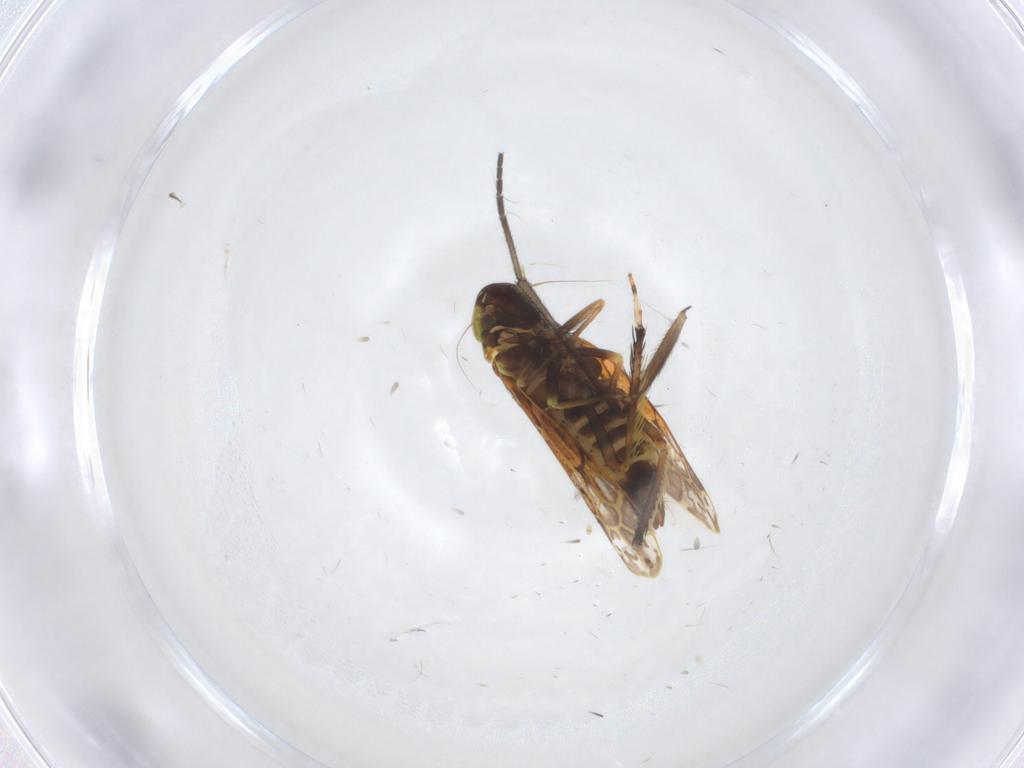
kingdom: Animalia
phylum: Arthropoda
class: Insecta
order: Hemiptera
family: Cicadellidae
